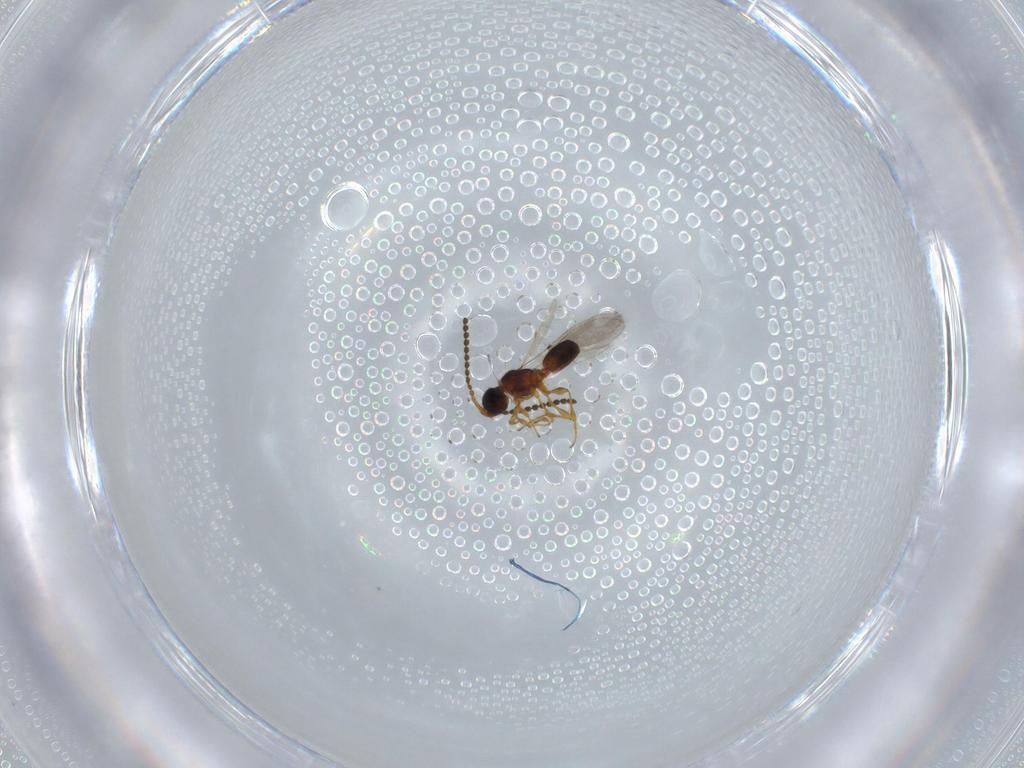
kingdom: Animalia
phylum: Arthropoda
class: Insecta
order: Hymenoptera
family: Diapriidae
